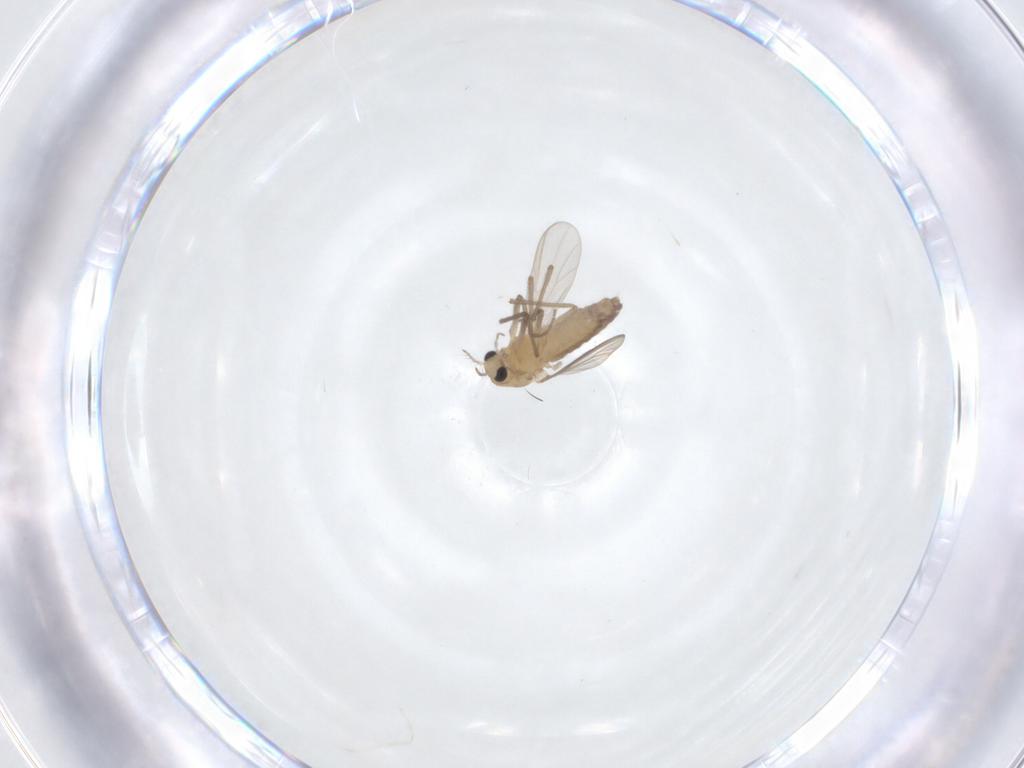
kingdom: Animalia
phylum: Arthropoda
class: Insecta
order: Diptera
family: Chironomidae
